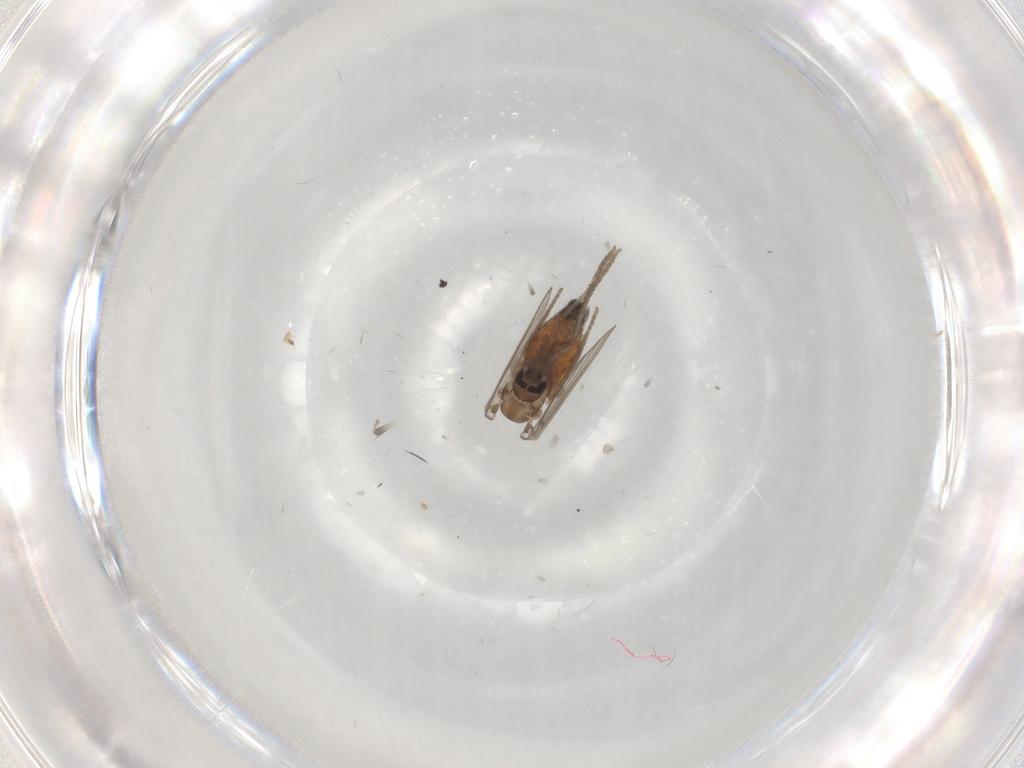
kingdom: Animalia
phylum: Arthropoda
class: Insecta
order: Diptera
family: Psychodidae
